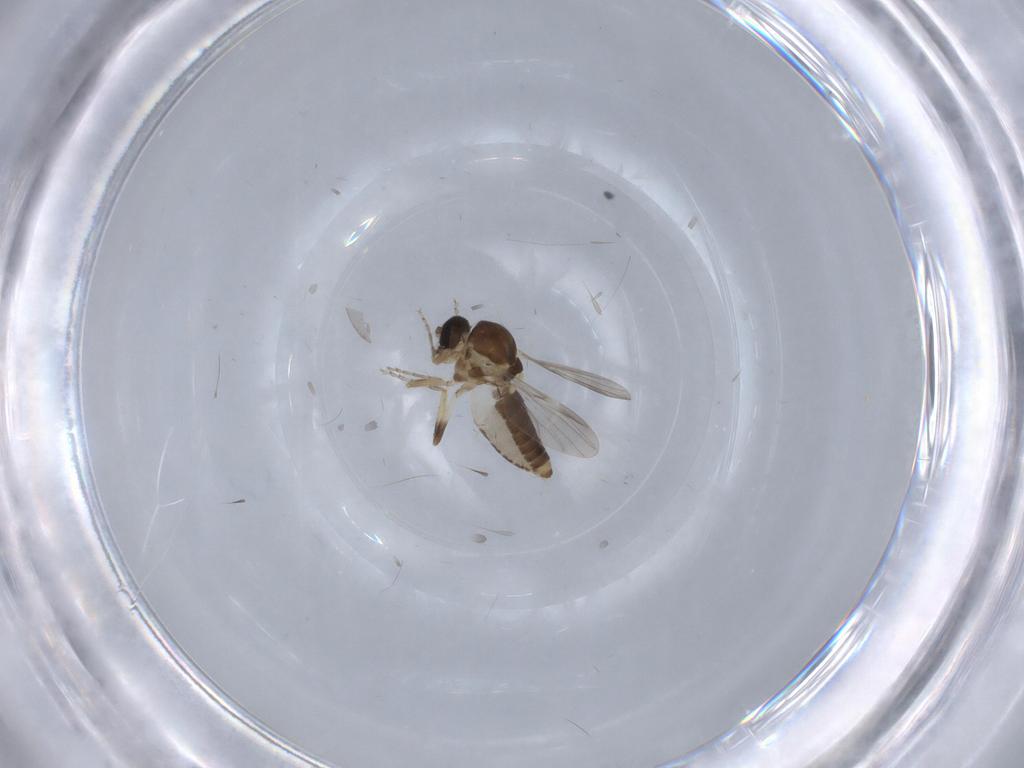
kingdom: Animalia
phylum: Arthropoda
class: Insecta
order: Diptera
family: Ceratopogonidae
